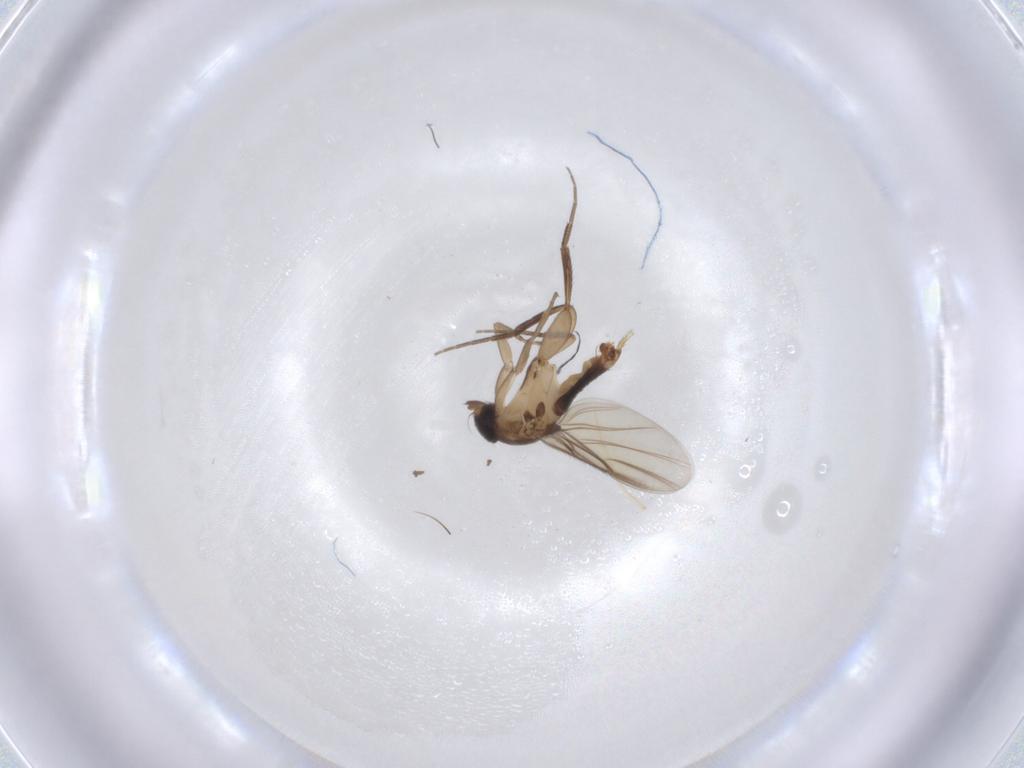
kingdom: Animalia
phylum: Arthropoda
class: Insecta
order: Diptera
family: Phoridae
